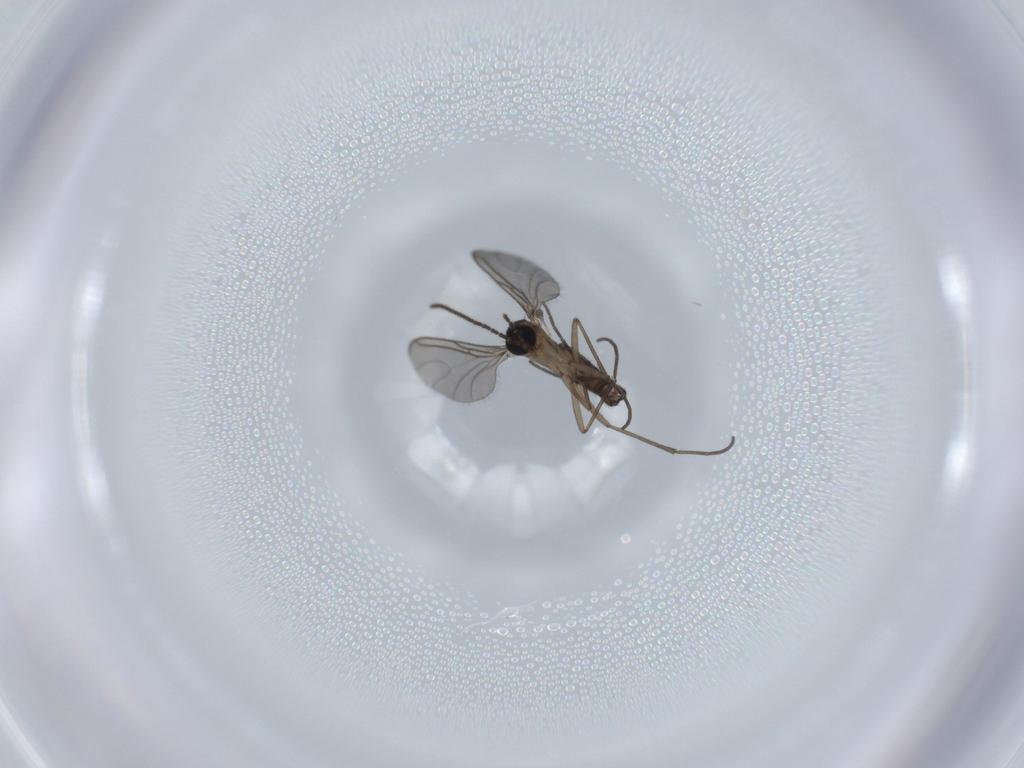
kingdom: Animalia
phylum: Arthropoda
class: Insecta
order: Diptera
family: Sciaridae
